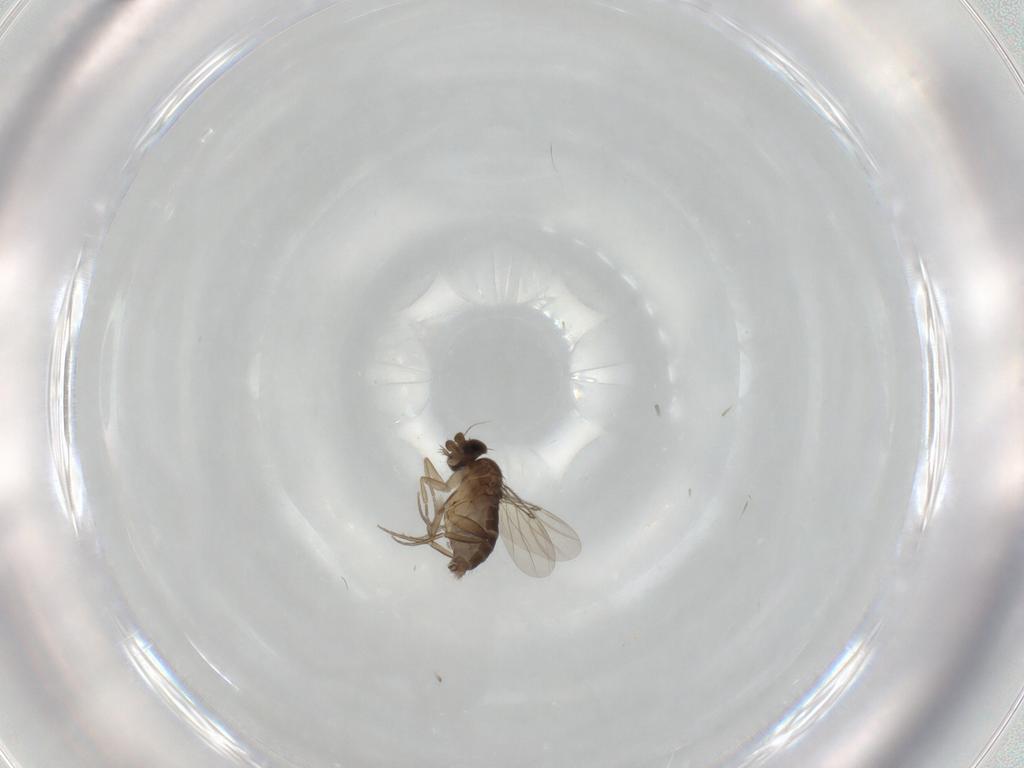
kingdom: Animalia
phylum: Arthropoda
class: Insecta
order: Diptera
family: Phoridae
